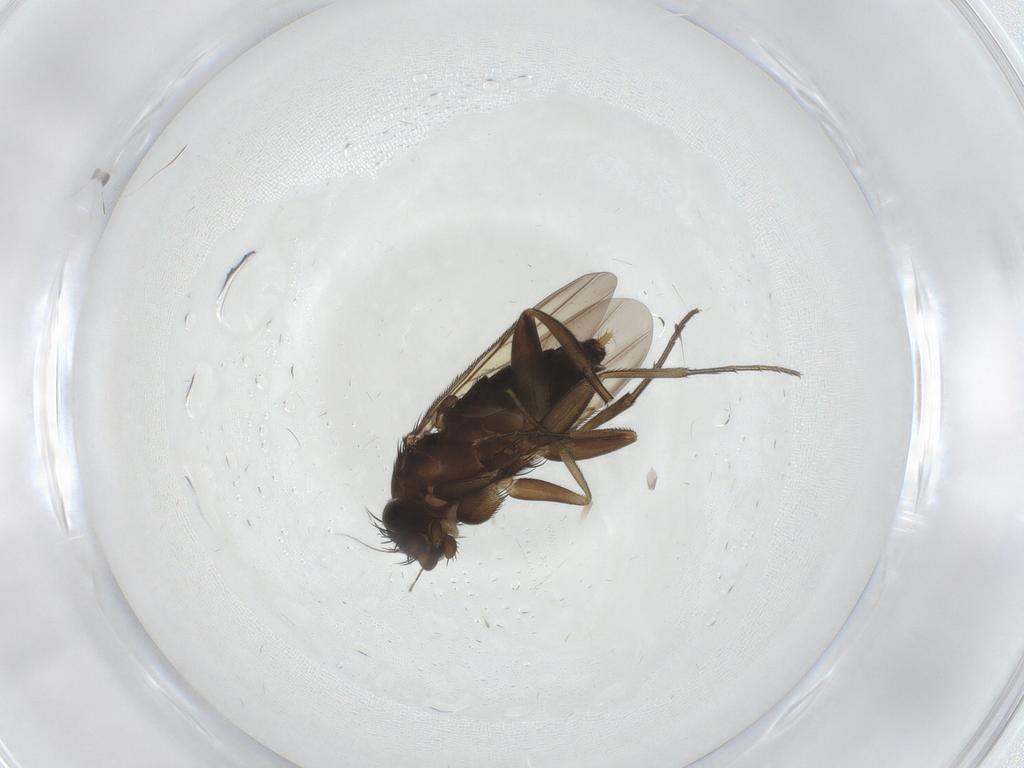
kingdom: Animalia
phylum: Arthropoda
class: Insecta
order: Diptera
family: Phoridae
